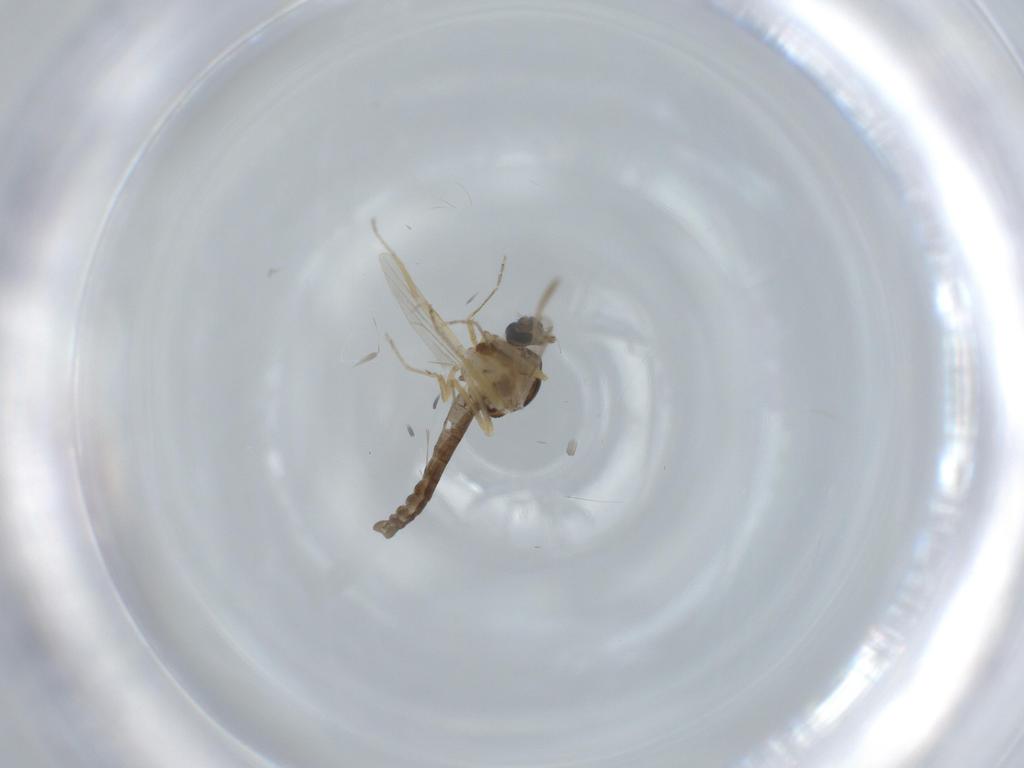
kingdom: Animalia
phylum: Arthropoda
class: Insecta
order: Diptera
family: Ceratopogonidae
